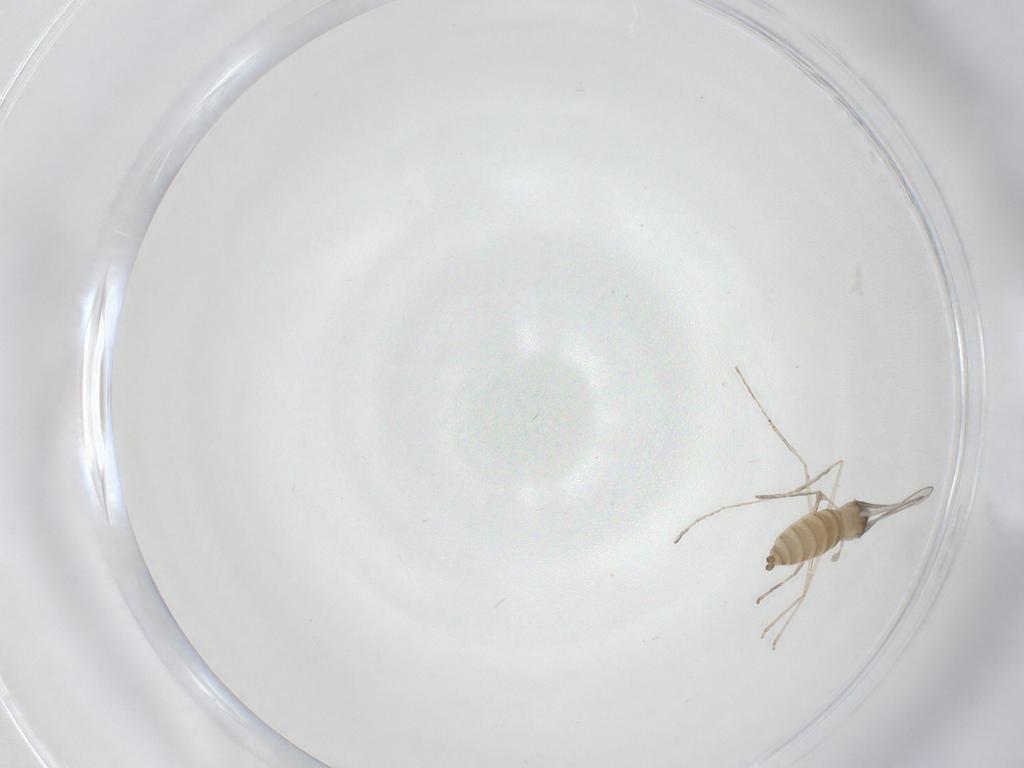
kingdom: Animalia
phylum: Arthropoda
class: Insecta
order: Diptera
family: Cecidomyiidae
